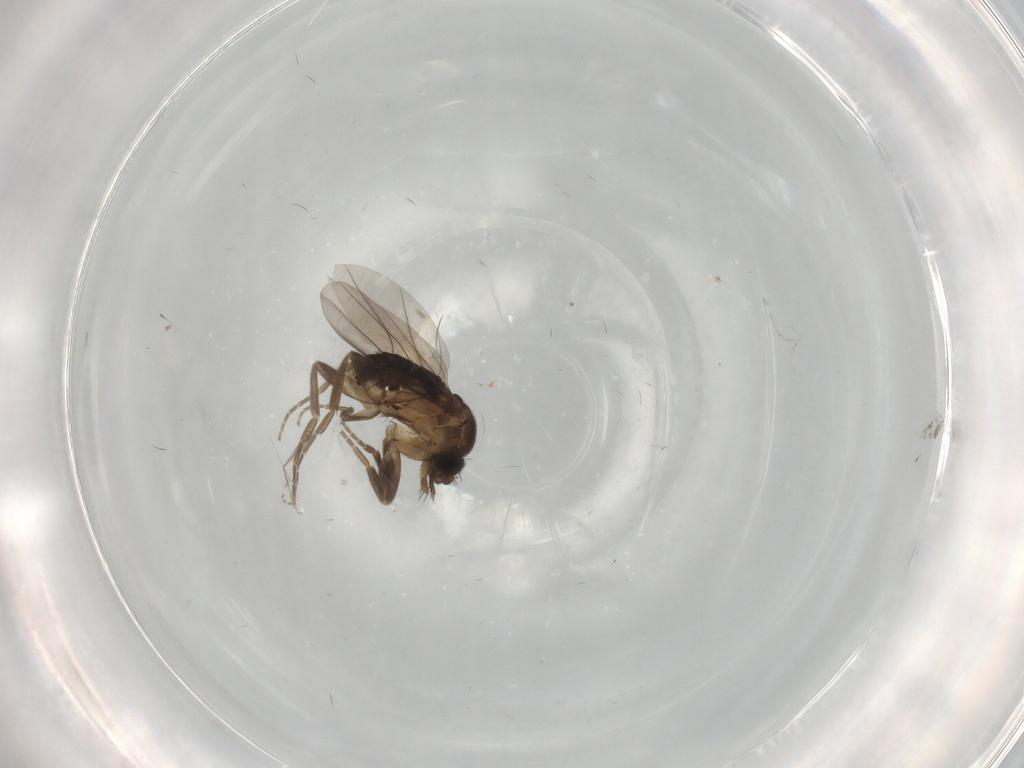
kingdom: Animalia
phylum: Arthropoda
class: Insecta
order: Diptera
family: Cecidomyiidae
